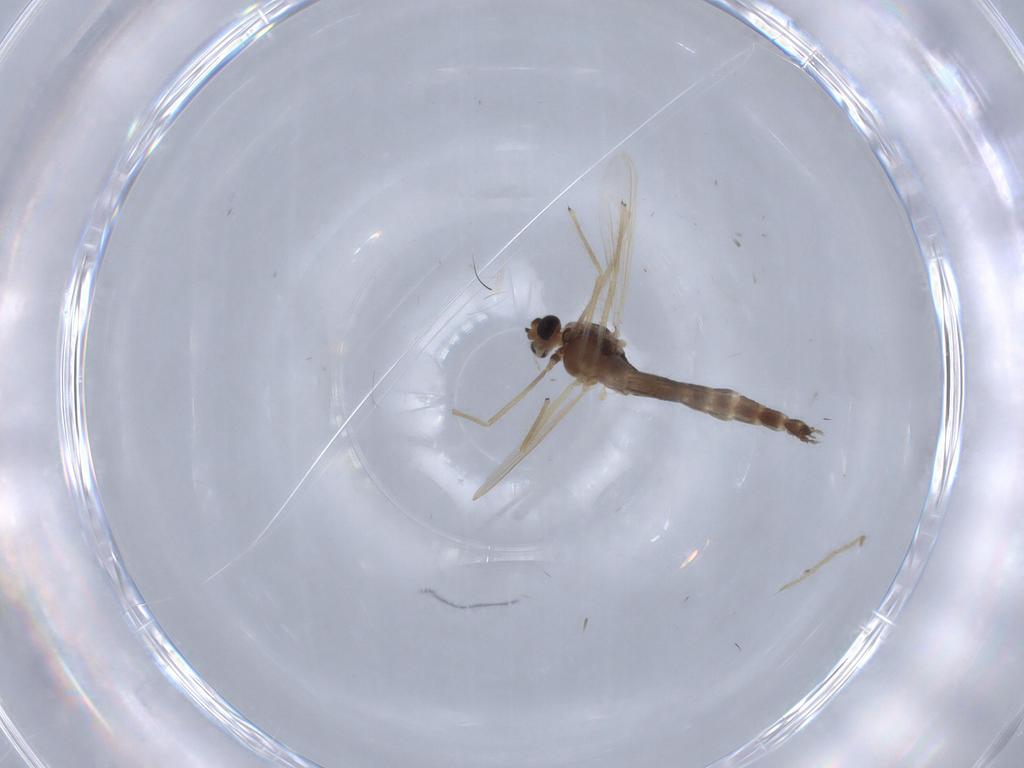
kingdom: Animalia
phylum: Arthropoda
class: Insecta
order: Diptera
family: Chironomidae
